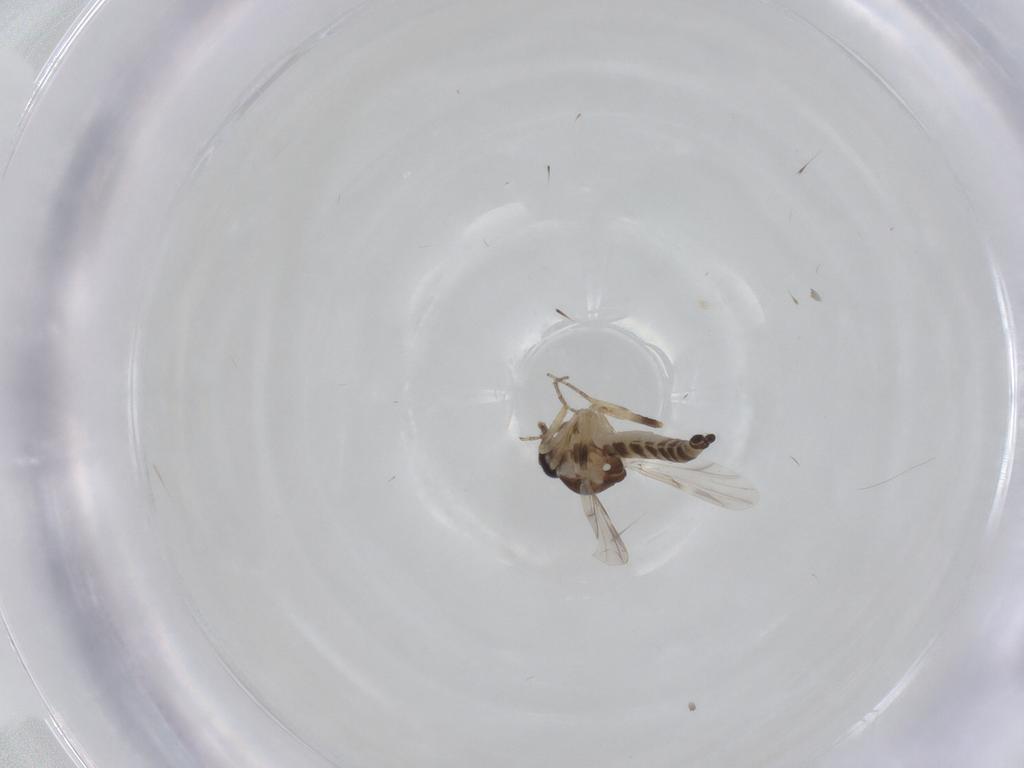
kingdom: Animalia
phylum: Arthropoda
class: Insecta
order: Diptera
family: Ceratopogonidae
